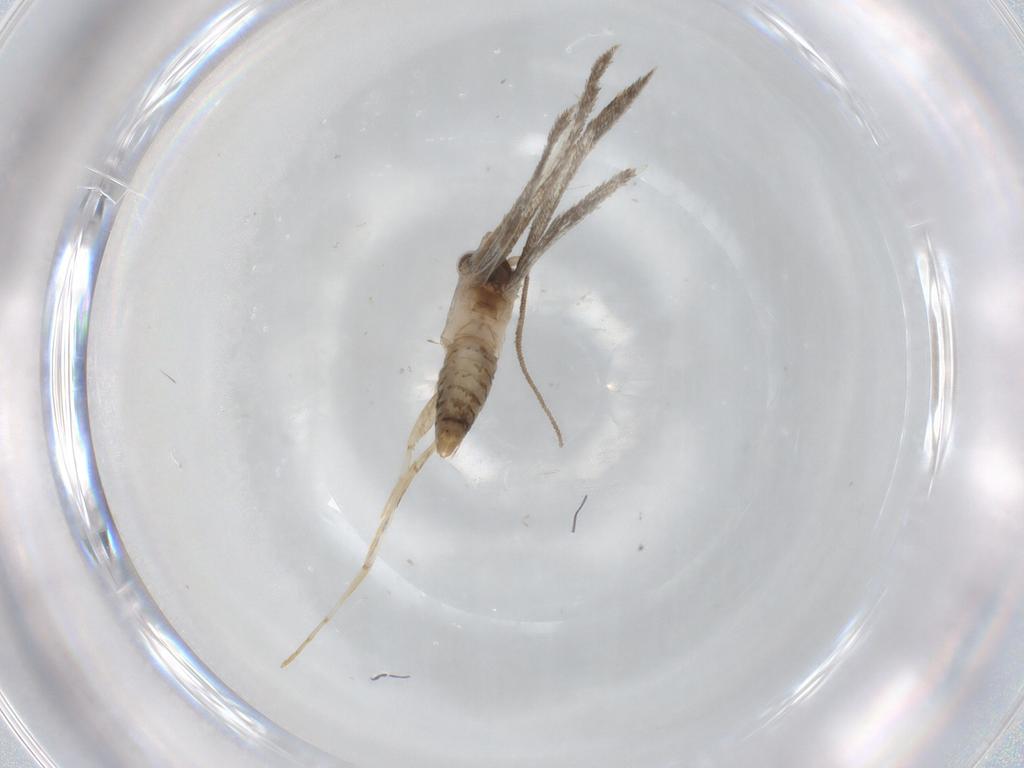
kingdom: Animalia
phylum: Arthropoda
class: Insecta
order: Lepidoptera
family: Tineidae
